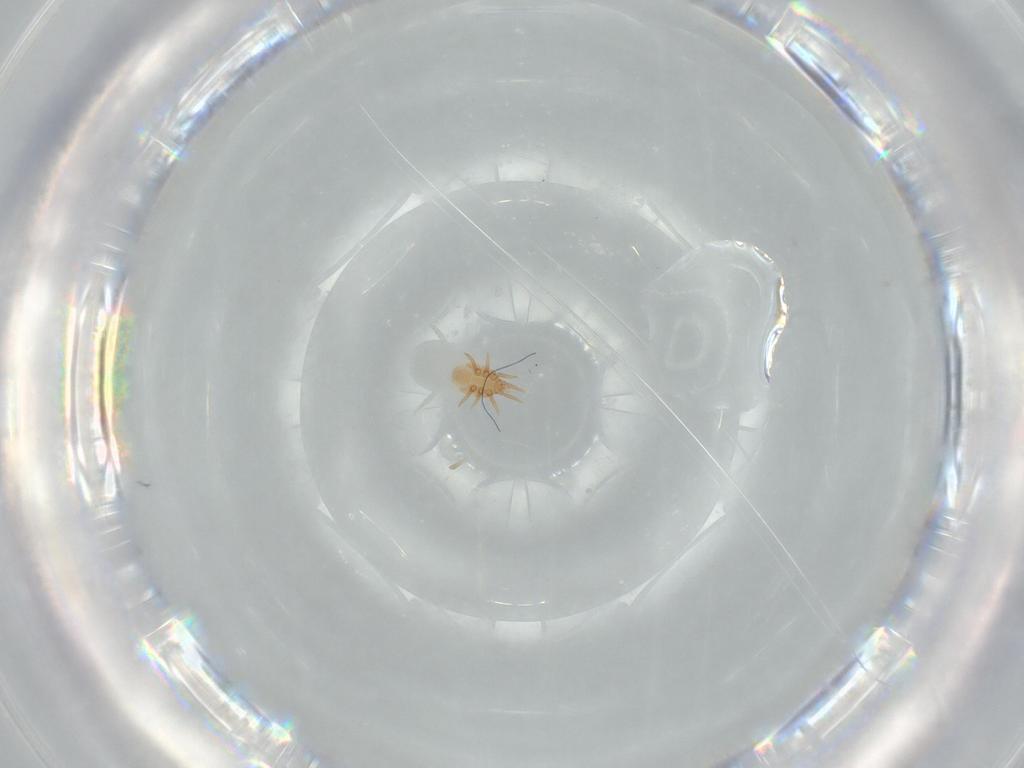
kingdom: Animalia
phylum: Arthropoda
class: Arachnida
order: Mesostigmata
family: Dinychidae
